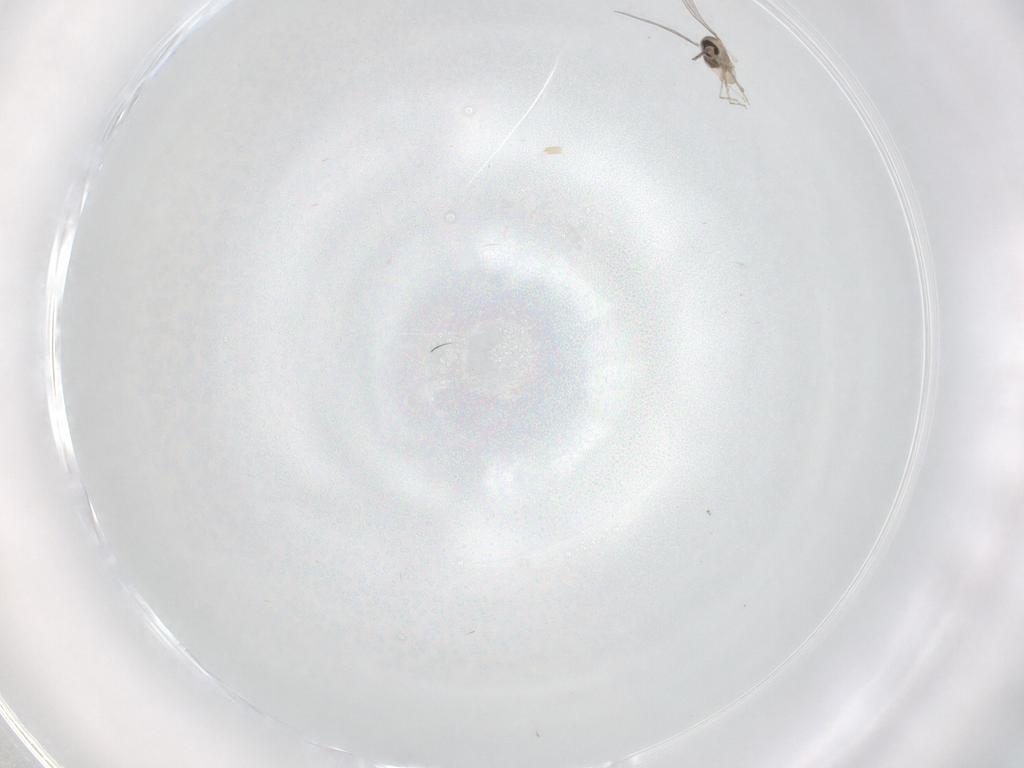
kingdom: Animalia
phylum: Arthropoda
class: Insecta
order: Diptera
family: Cecidomyiidae
